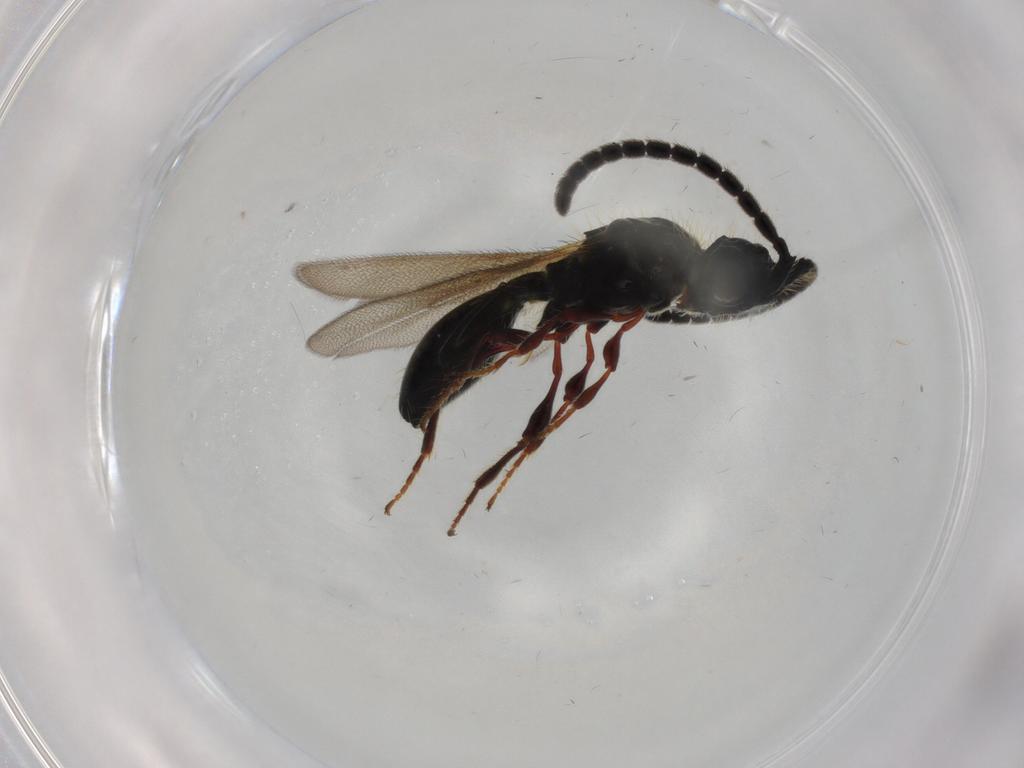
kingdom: Animalia
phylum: Arthropoda
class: Insecta
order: Hymenoptera
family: Diapriidae
